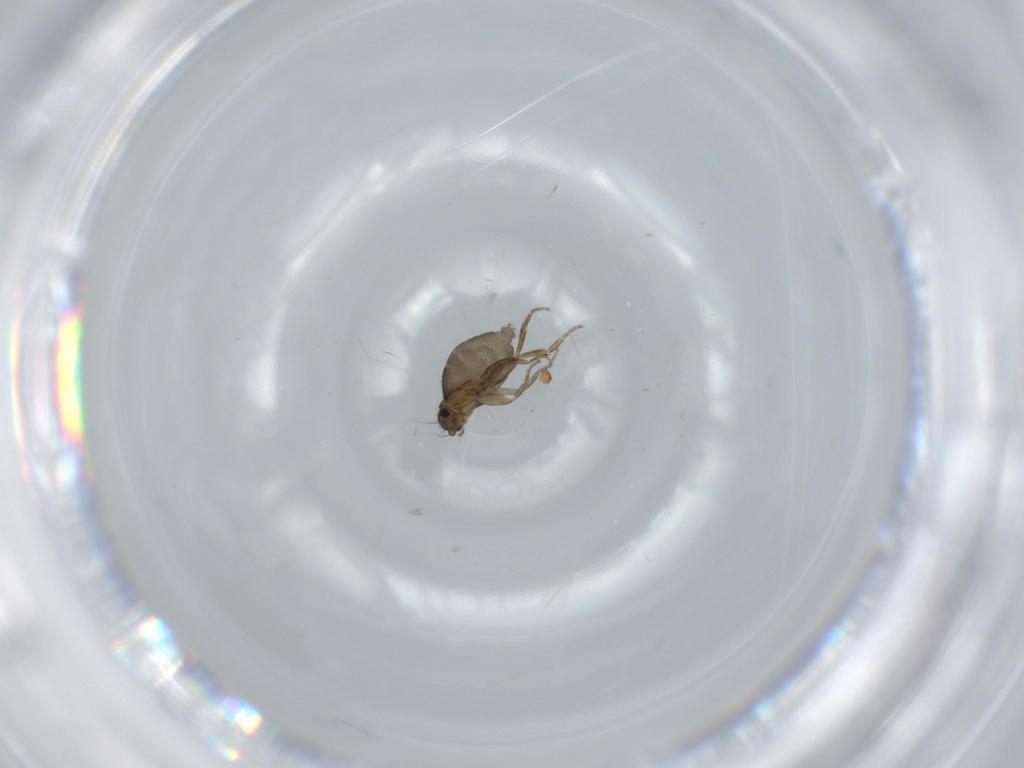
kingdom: Animalia
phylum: Arthropoda
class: Insecta
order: Diptera
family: Phoridae
